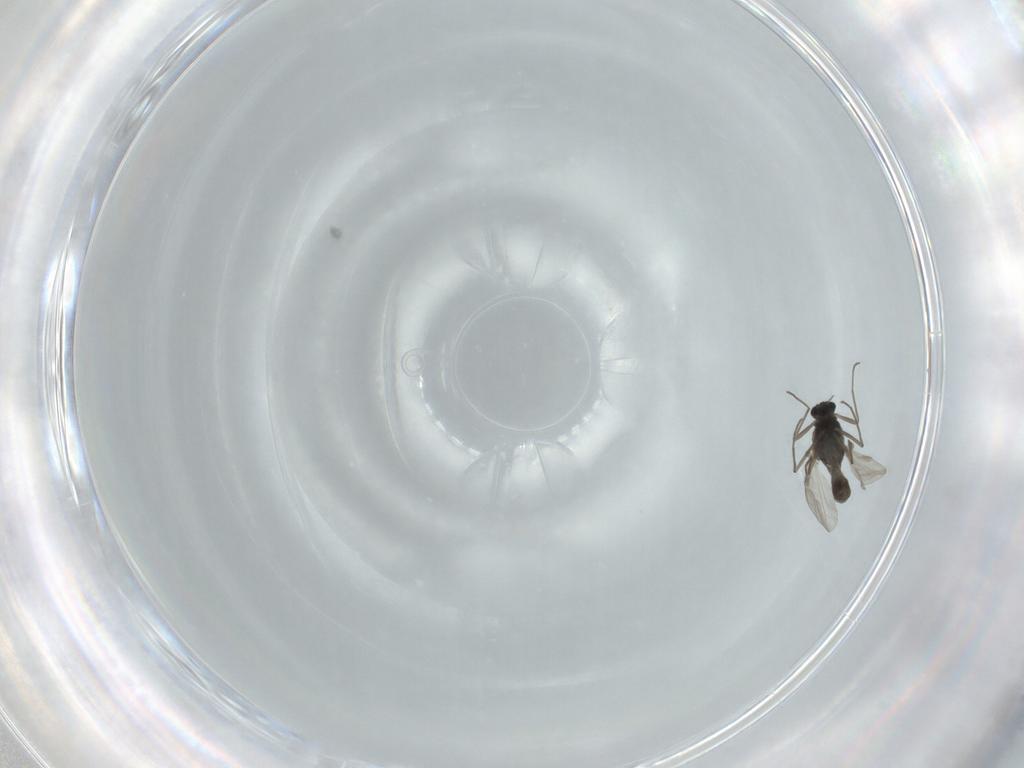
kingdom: Animalia
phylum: Arthropoda
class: Insecta
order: Diptera
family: Chironomidae
